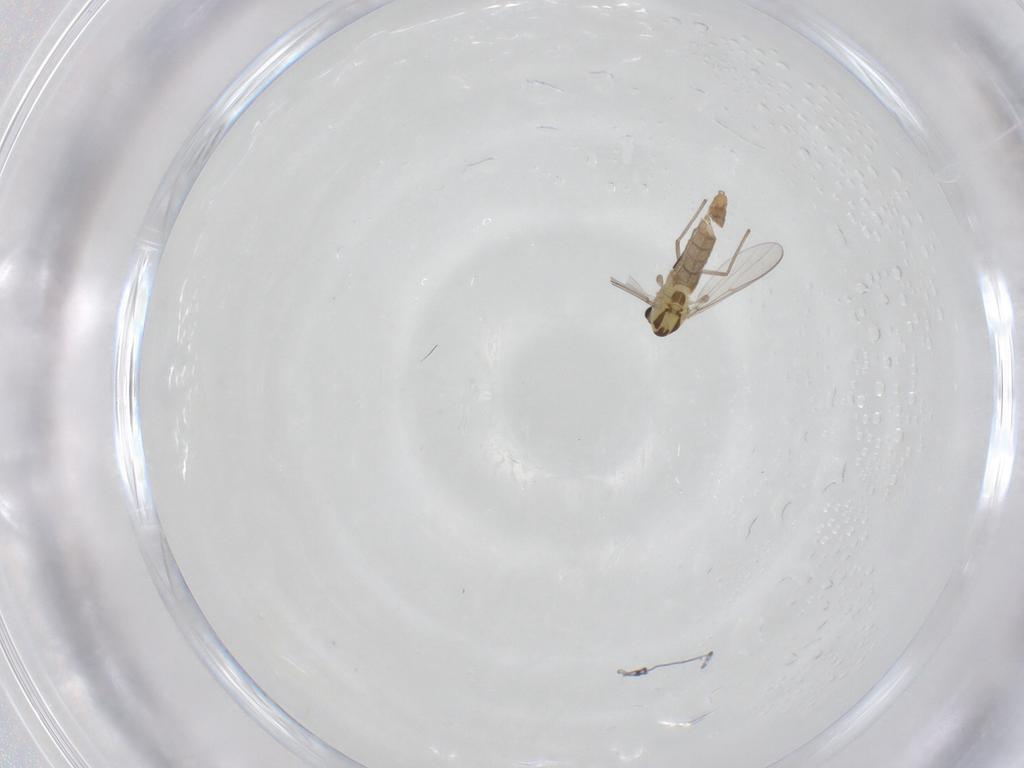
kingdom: Animalia
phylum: Arthropoda
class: Insecta
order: Diptera
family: Chironomidae
